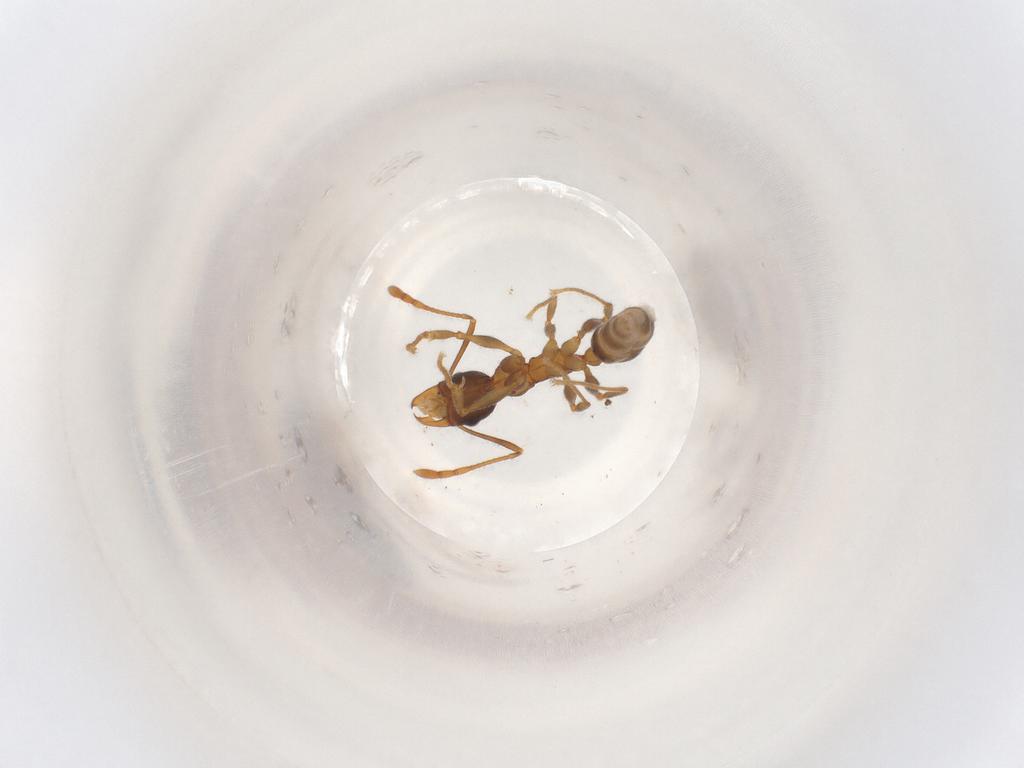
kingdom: Animalia
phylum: Arthropoda
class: Insecta
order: Hymenoptera
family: Formicidae
